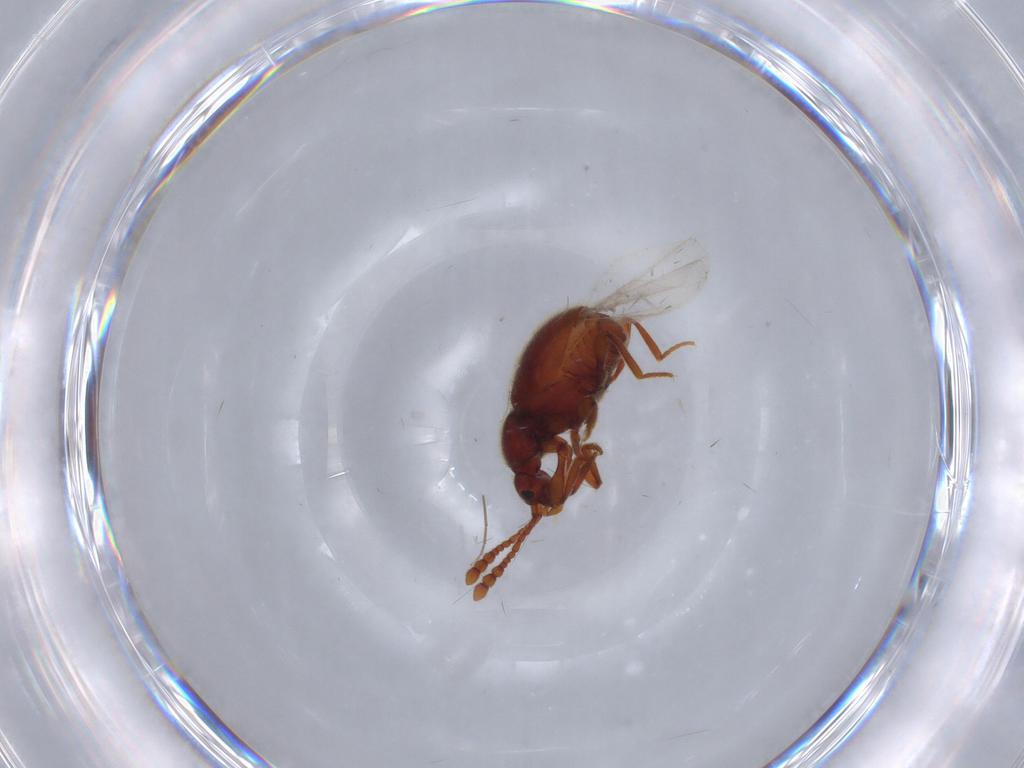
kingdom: Animalia
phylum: Arthropoda
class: Insecta
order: Coleoptera
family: Staphylinidae
